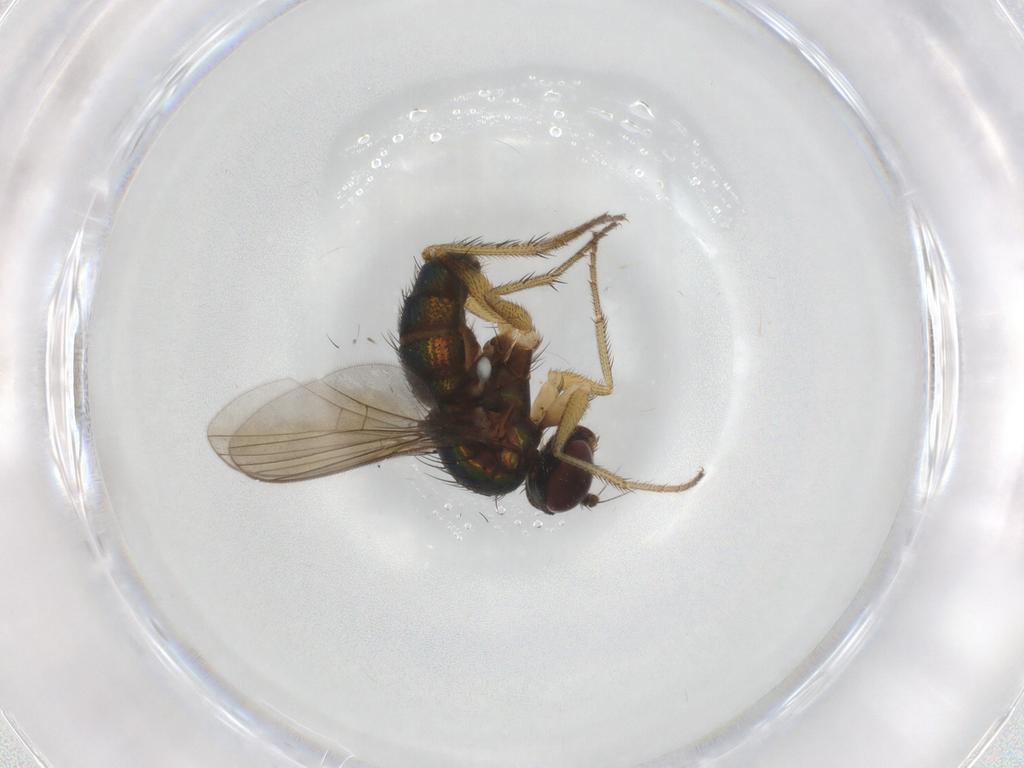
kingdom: Animalia
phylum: Arthropoda
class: Insecta
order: Diptera
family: Dolichopodidae
